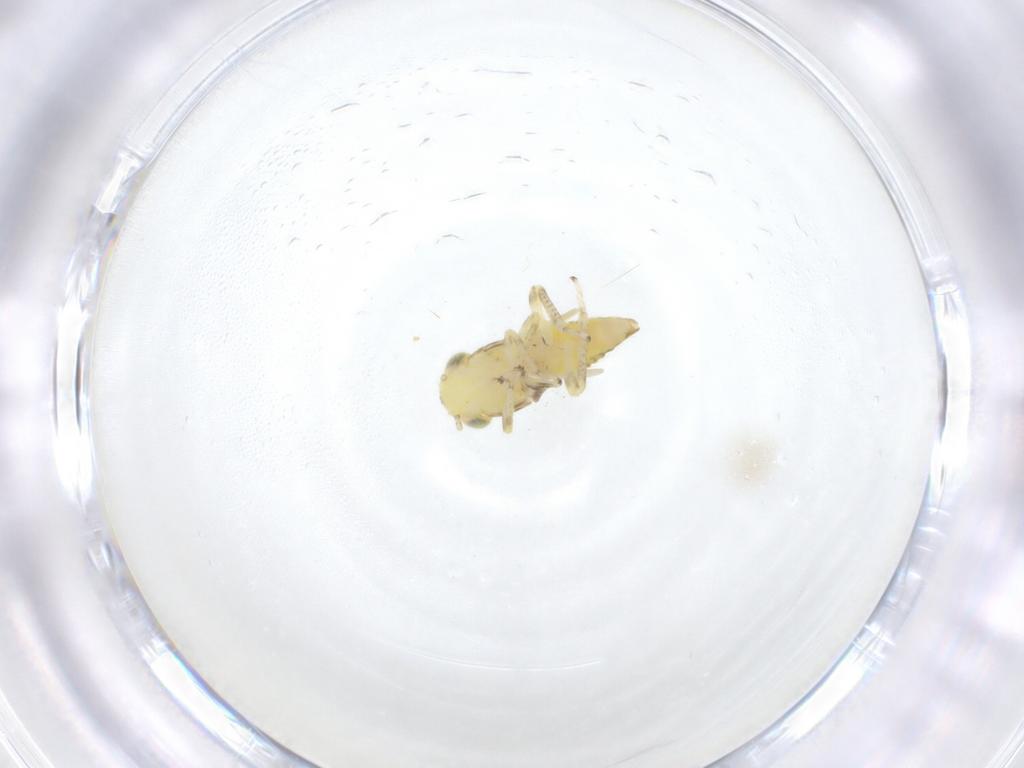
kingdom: Animalia
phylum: Arthropoda
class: Insecta
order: Hemiptera
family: Cicadellidae
